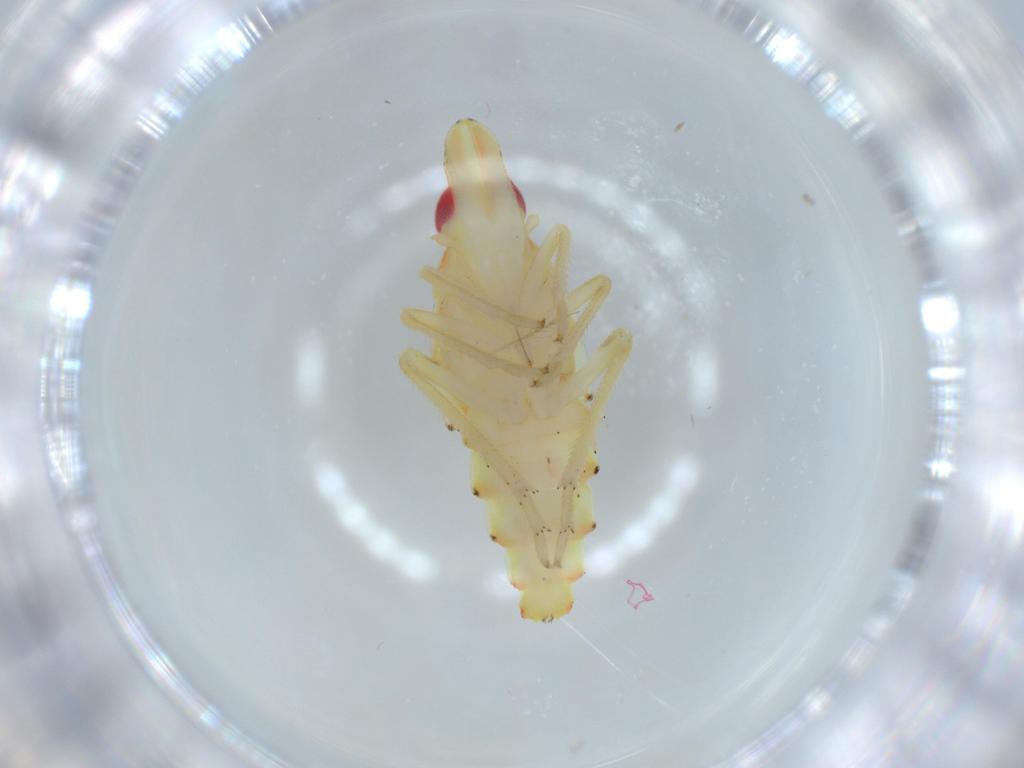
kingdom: Animalia
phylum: Arthropoda
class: Insecta
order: Hemiptera
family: Tropiduchidae
